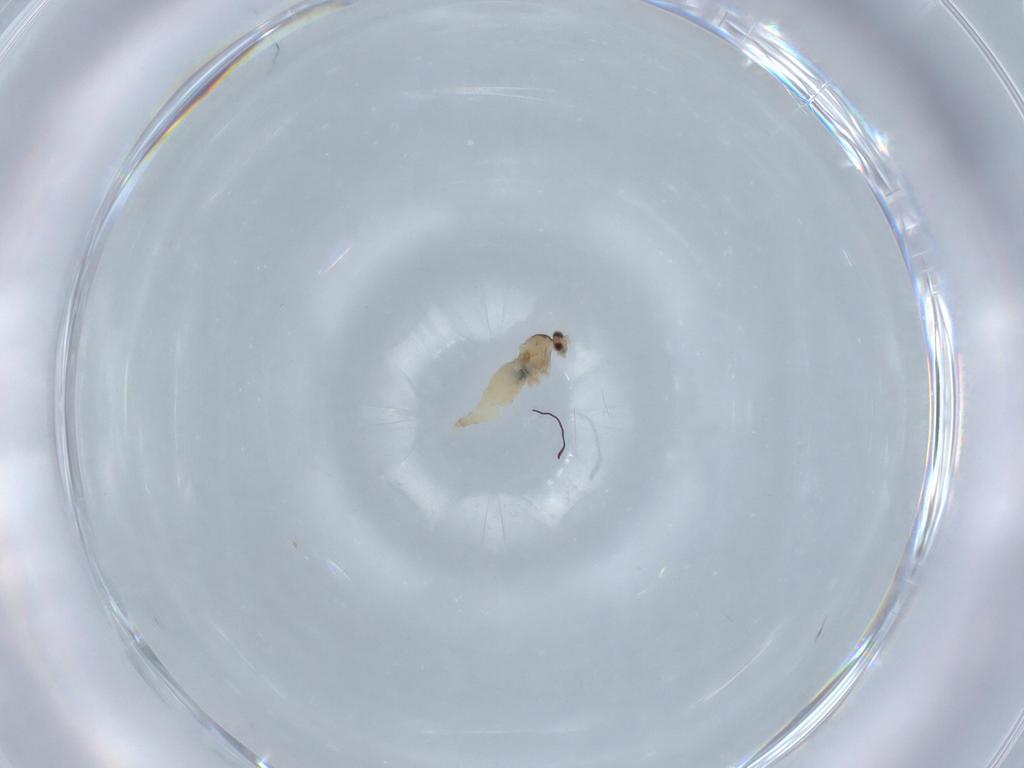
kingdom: Animalia
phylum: Arthropoda
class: Insecta
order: Diptera
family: Cecidomyiidae
